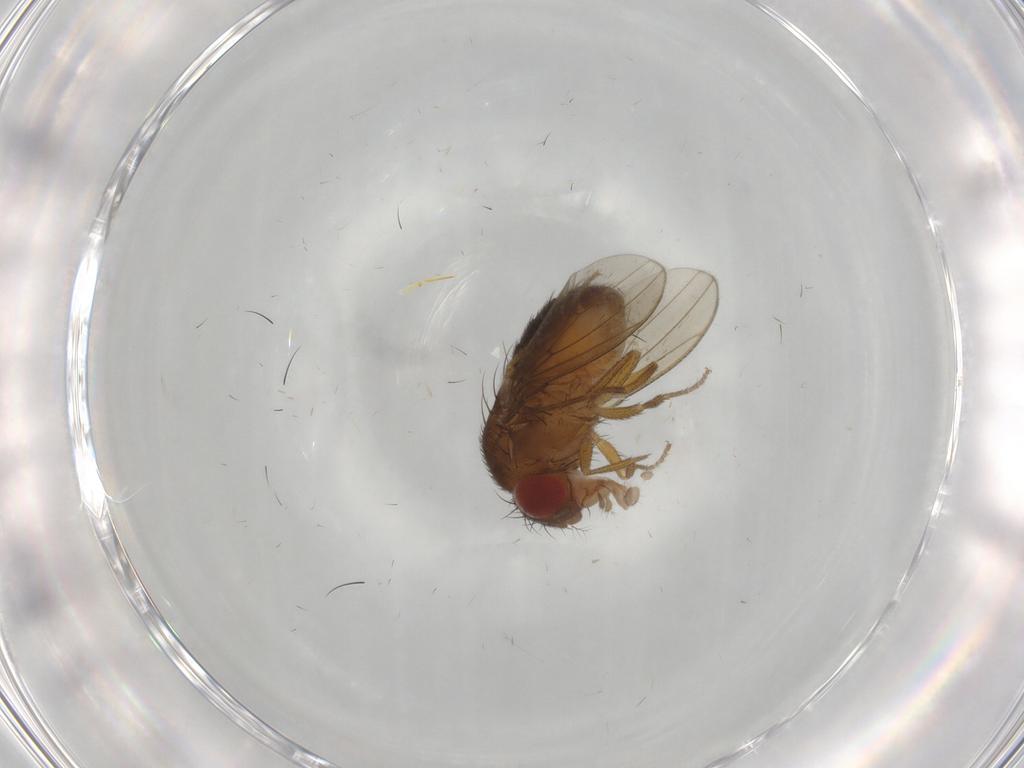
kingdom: Animalia
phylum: Arthropoda
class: Insecta
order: Diptera
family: Drosophilidae
